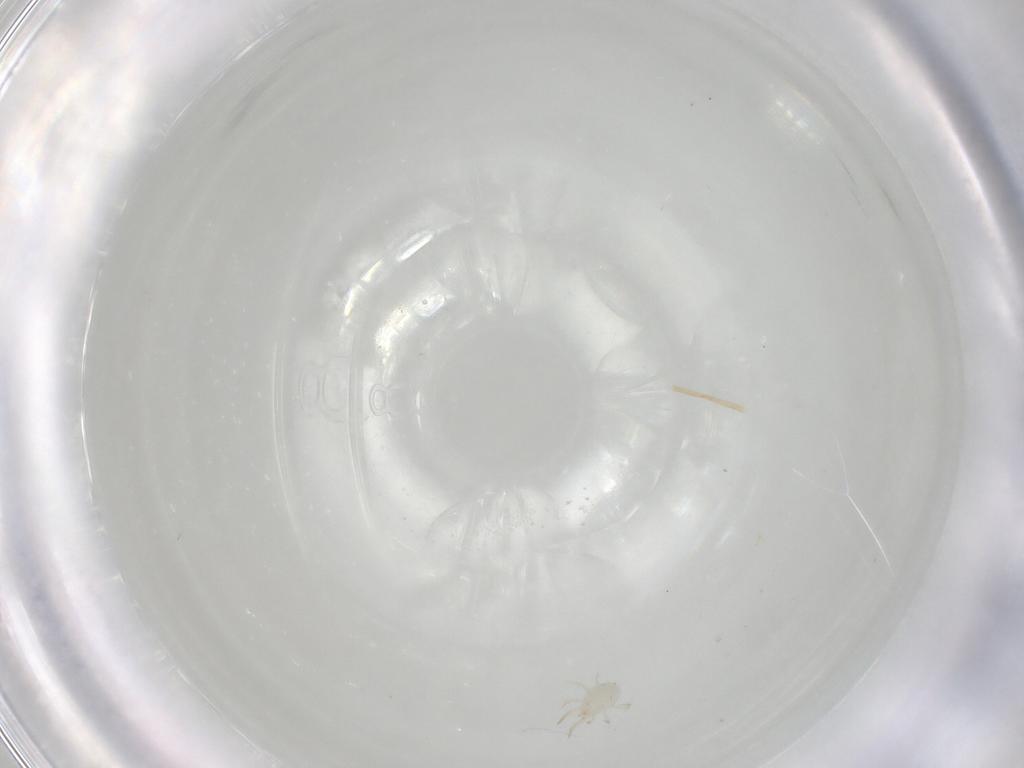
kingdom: Animalia
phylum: Arthropoda
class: Arachnida
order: Mesostigmata
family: Phytoseiidae
